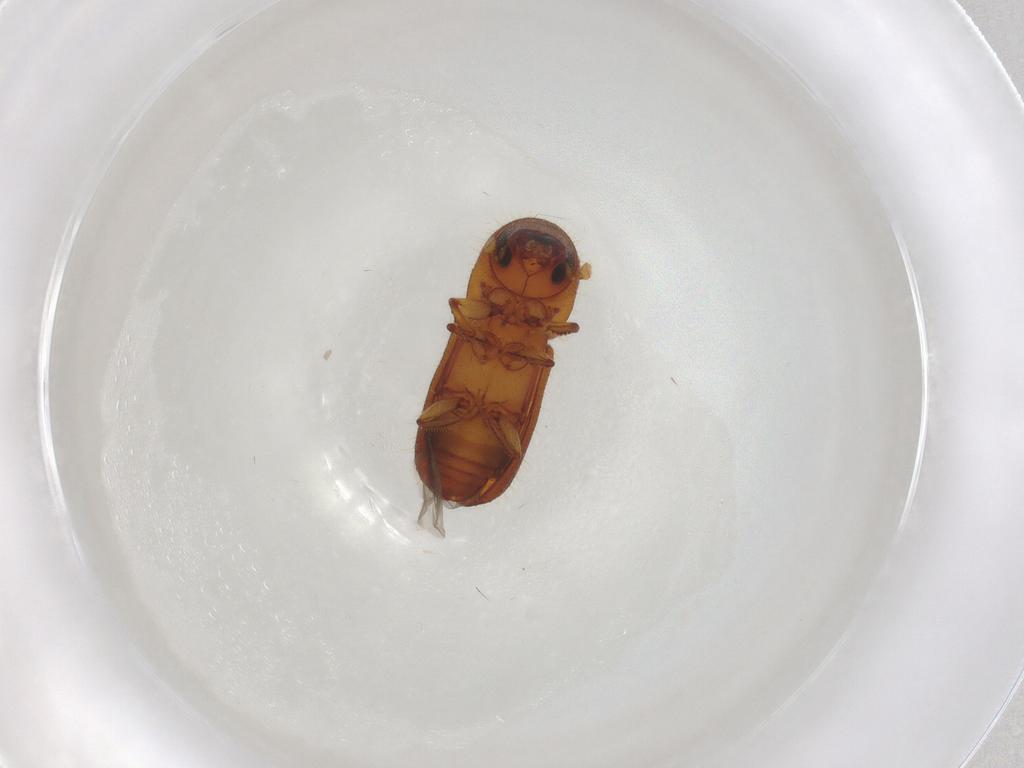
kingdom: Animalia
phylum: Arthropoda
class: Insecta
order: Coleoptera
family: Curculionidae
